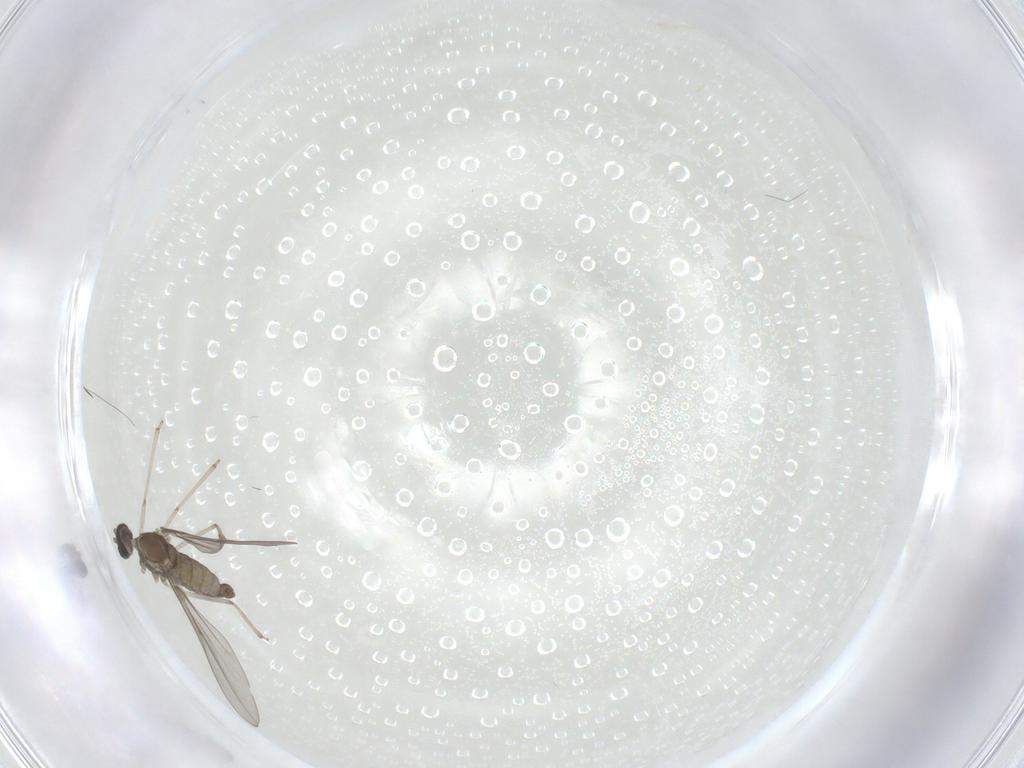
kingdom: Animalia
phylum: Arthropoda
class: Insecta
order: Diptera
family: Cecidomyiidae
